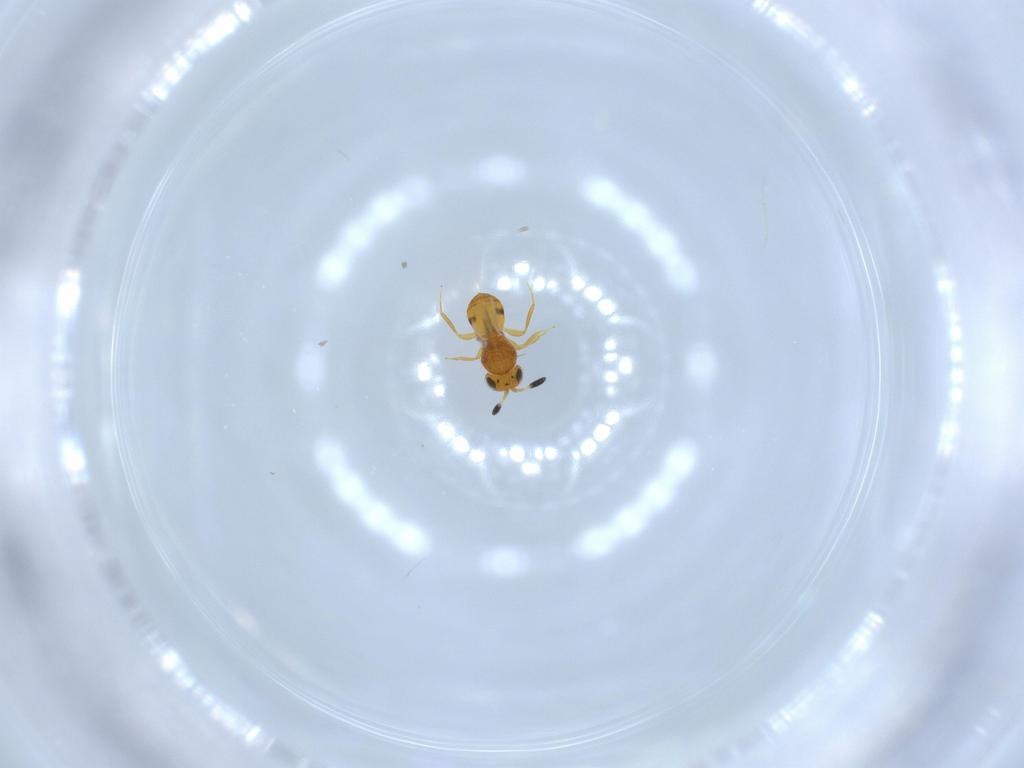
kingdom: Animalia
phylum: Arthropoda
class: Insecta
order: Hymenoptera
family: Scelionidae
